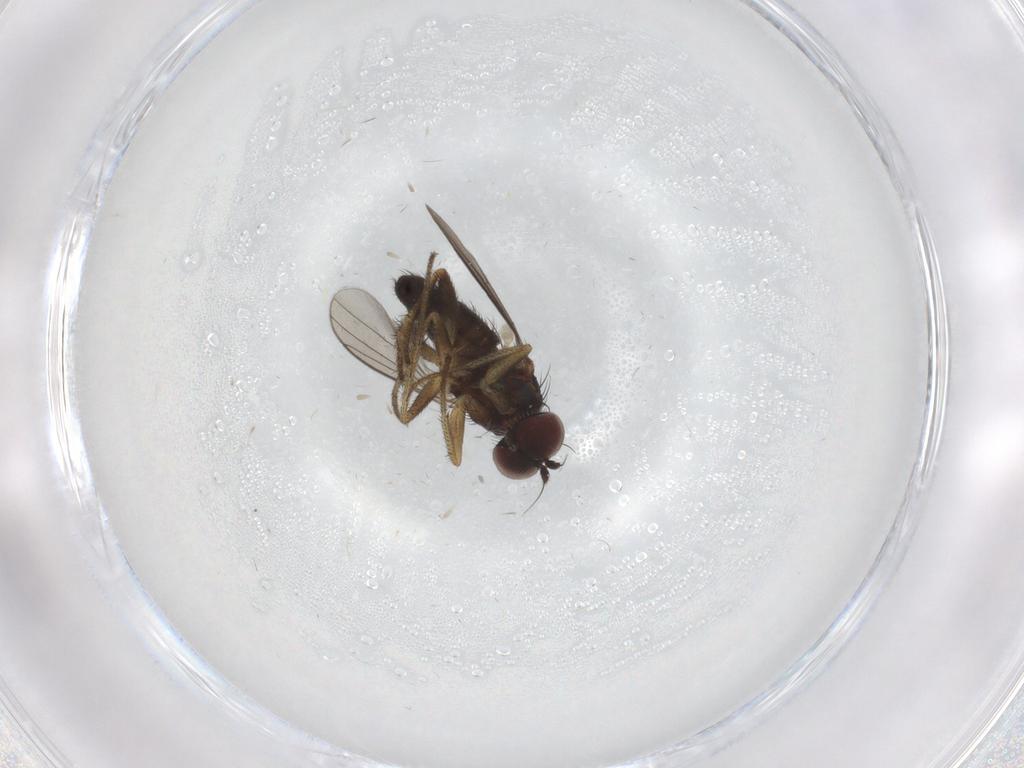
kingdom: Animalia
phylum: Arthropoda
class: Insecta
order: Diptera
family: Dolichopodidae
